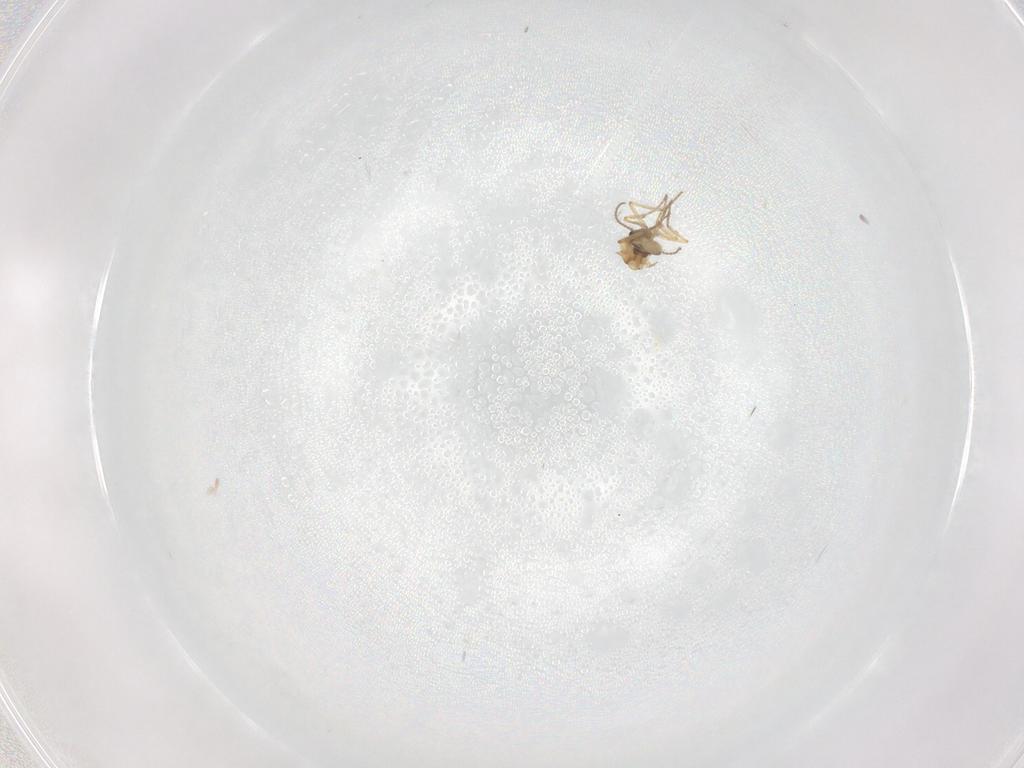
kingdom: Animalia
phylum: Arthropoda
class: Insecta
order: Diptera
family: Ceratopogonidae
